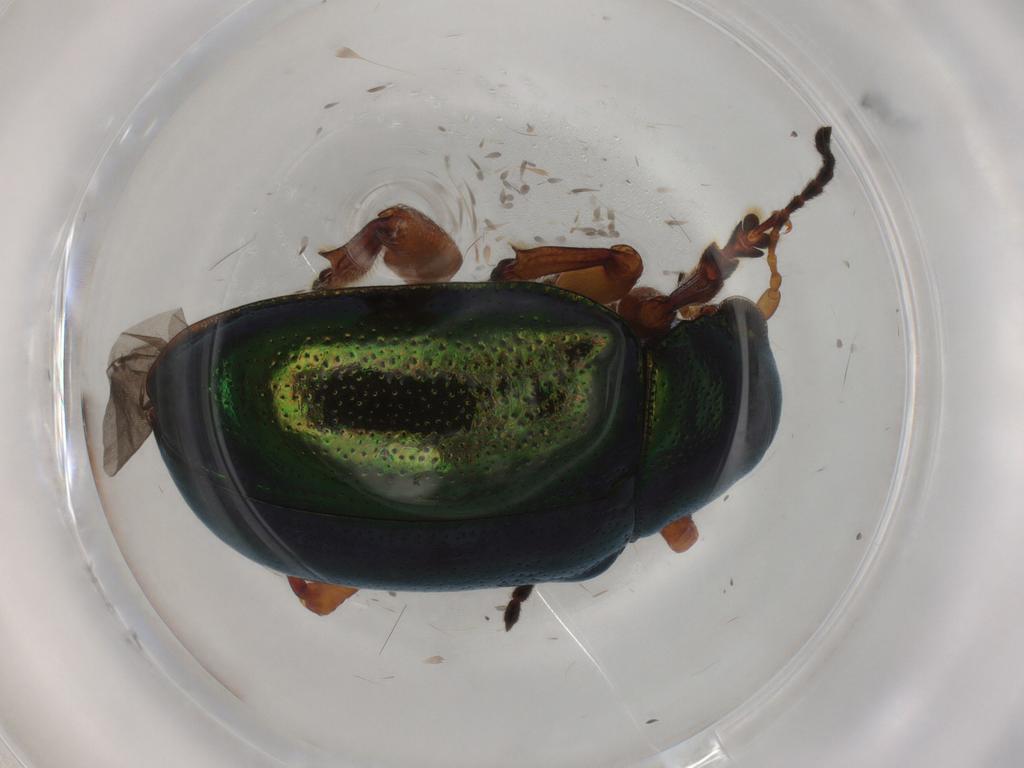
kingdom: Animalia
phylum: Arthropoda
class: Insecta
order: Coleoptera
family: Chrysomelidae
